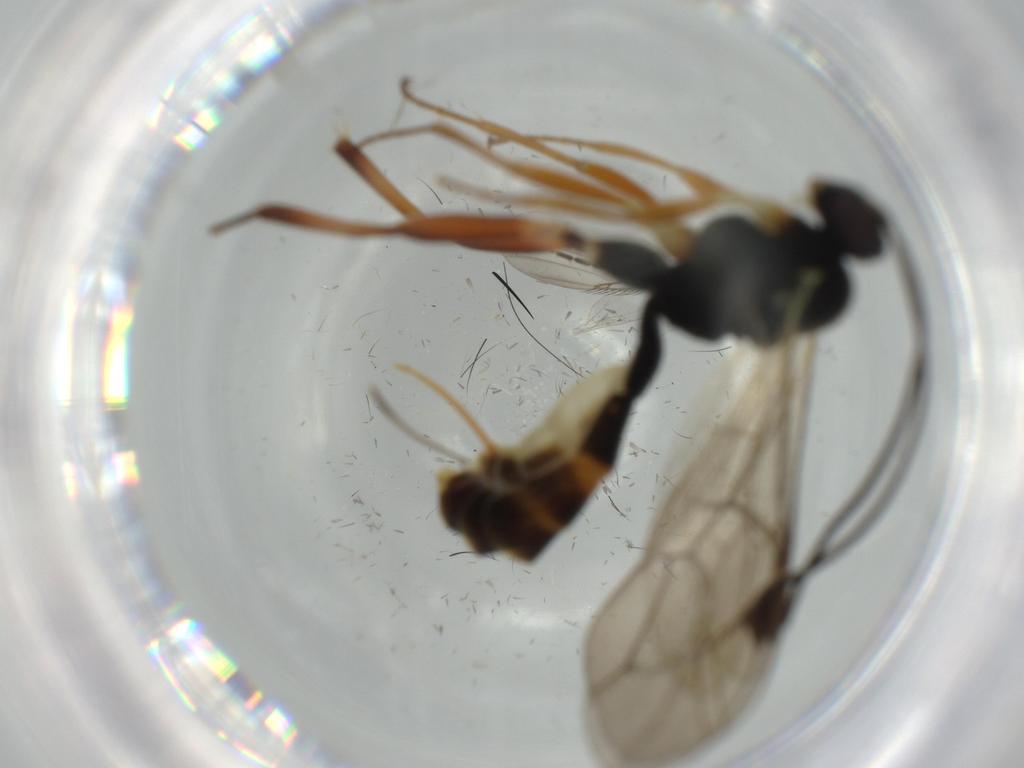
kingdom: Animalia
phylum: Arthropoda
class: Insecta
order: Hymenoptera
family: Ichneumonidae
